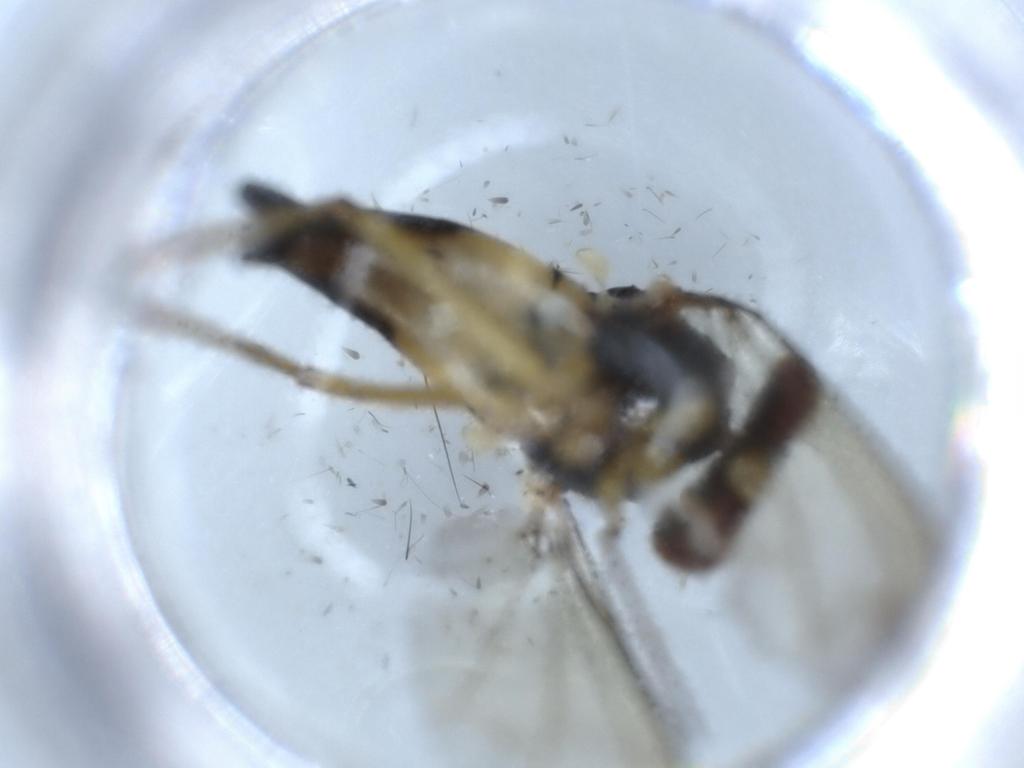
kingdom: Animalia
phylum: Arthropoda
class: Insecta
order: Diptera
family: Dolichopodidae
